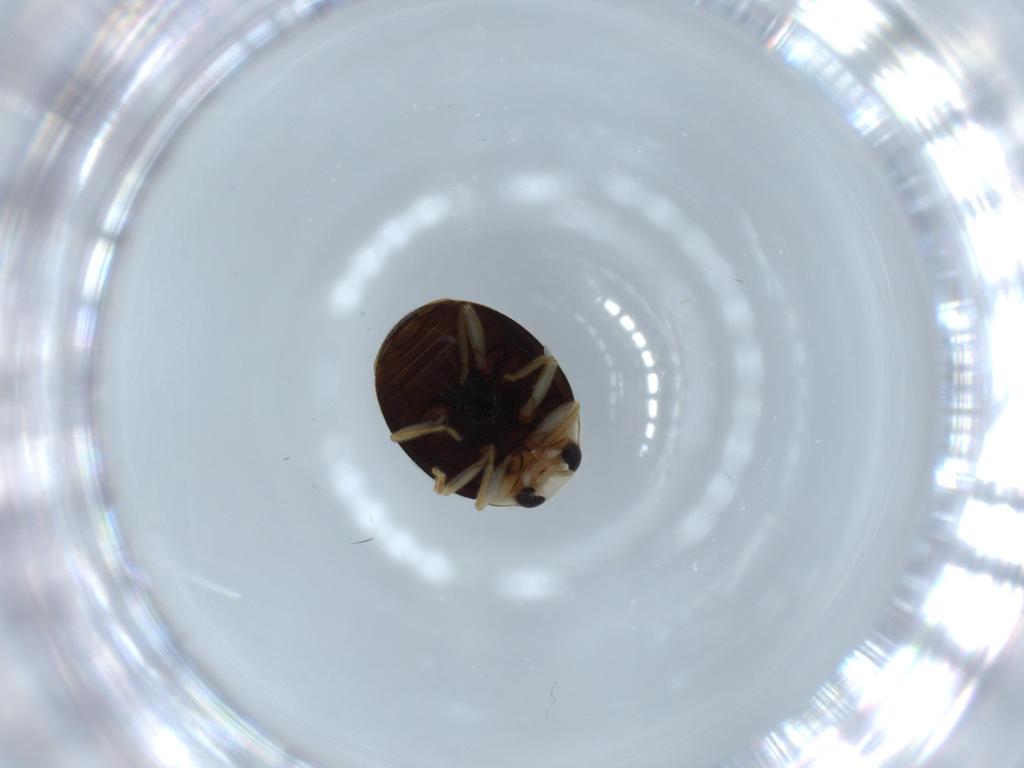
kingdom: Animalia
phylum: Arthropoda
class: Insecta
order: Coleoptera
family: Coccinellidae
